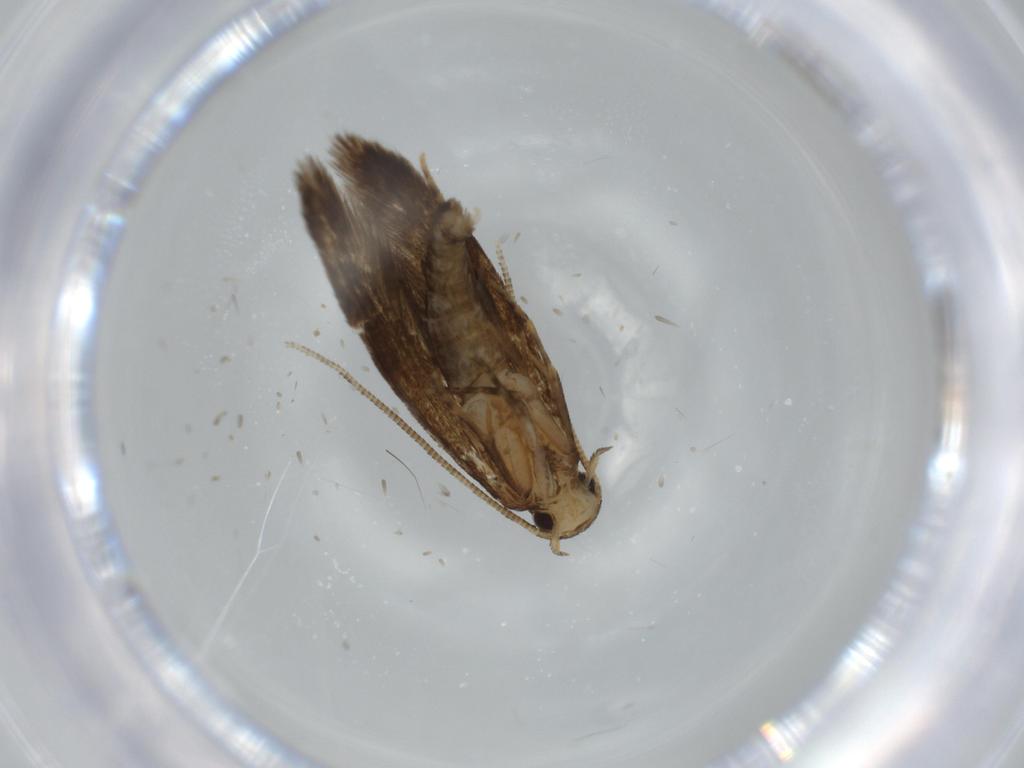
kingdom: Animalia
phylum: Arthropoda
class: Insecta
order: Lepidoptera
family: Tineidae
